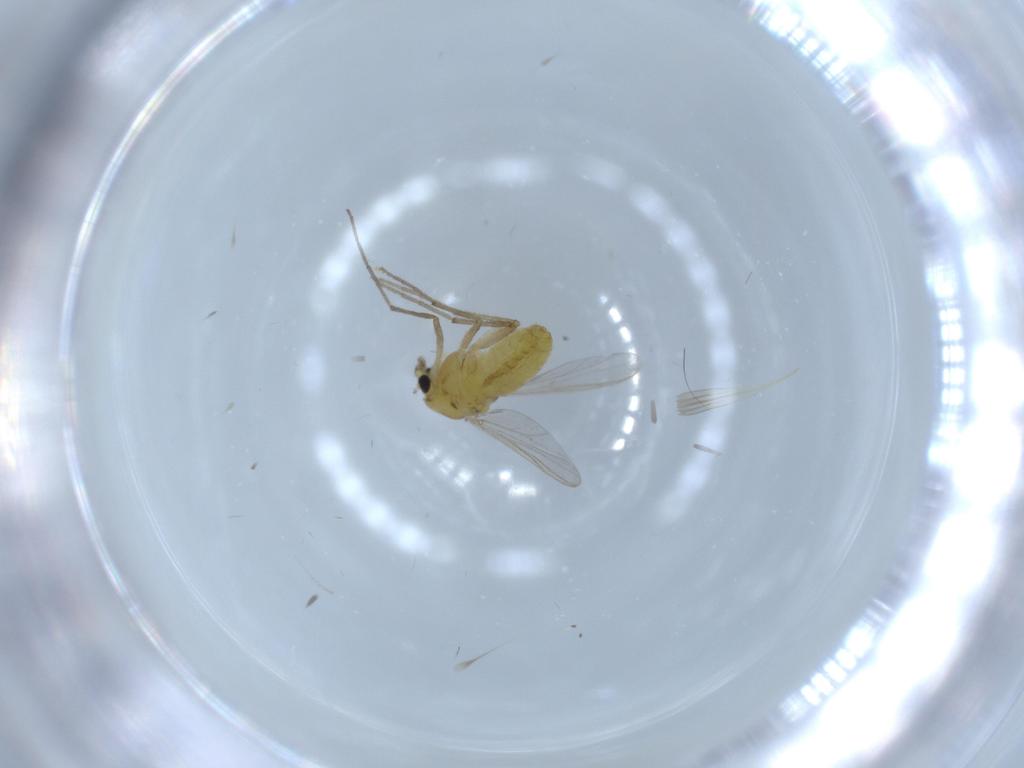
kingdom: Animalia
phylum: Arthropoda
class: Insecta
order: Diptera
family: Chironomidae
